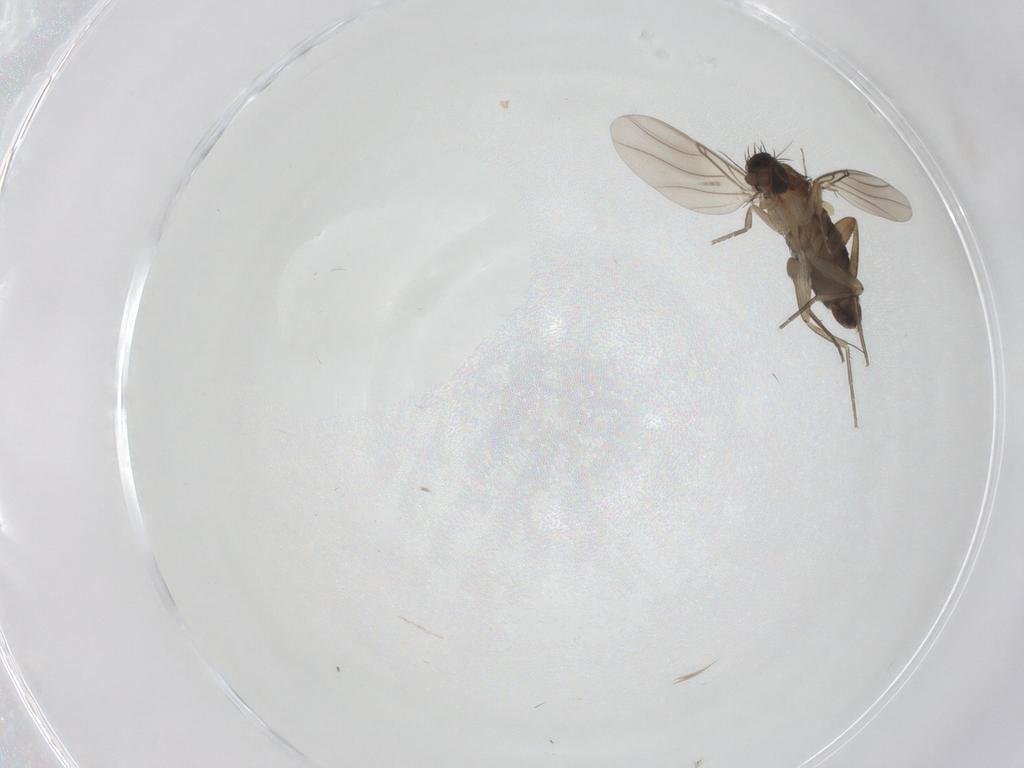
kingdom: Animalia
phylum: Arthropoda
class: Insecta
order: Diptera
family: Phoridae
